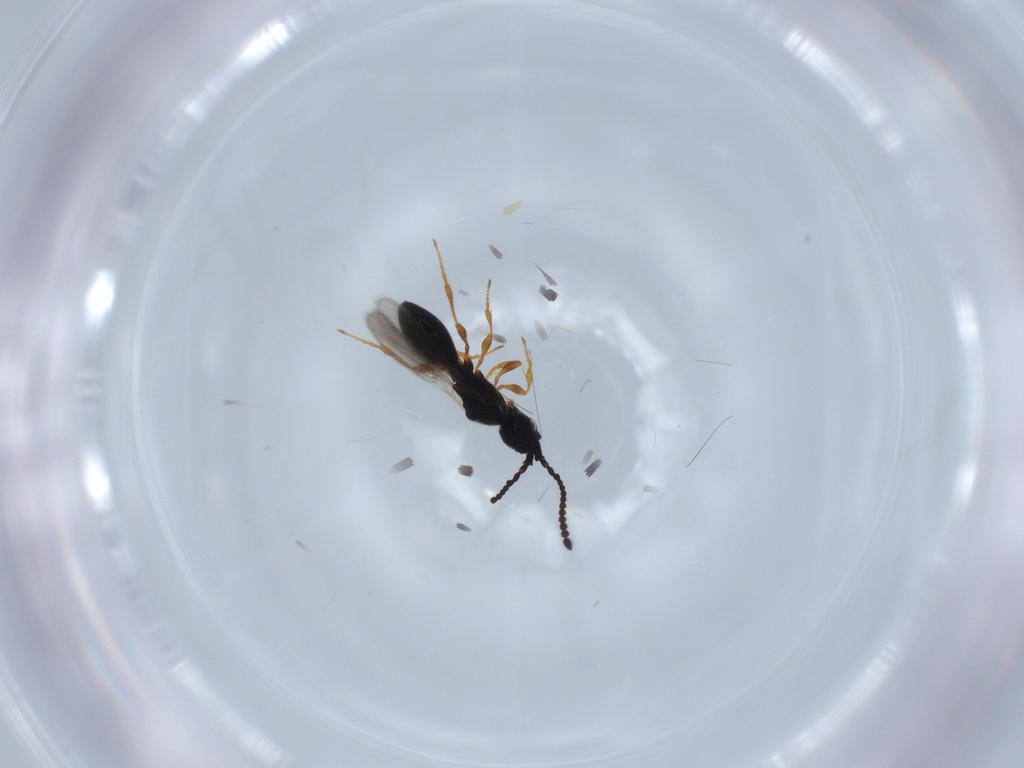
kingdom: Animalia
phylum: Arthropoda
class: Insecta
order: Hymenoptera
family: Diapriidae
